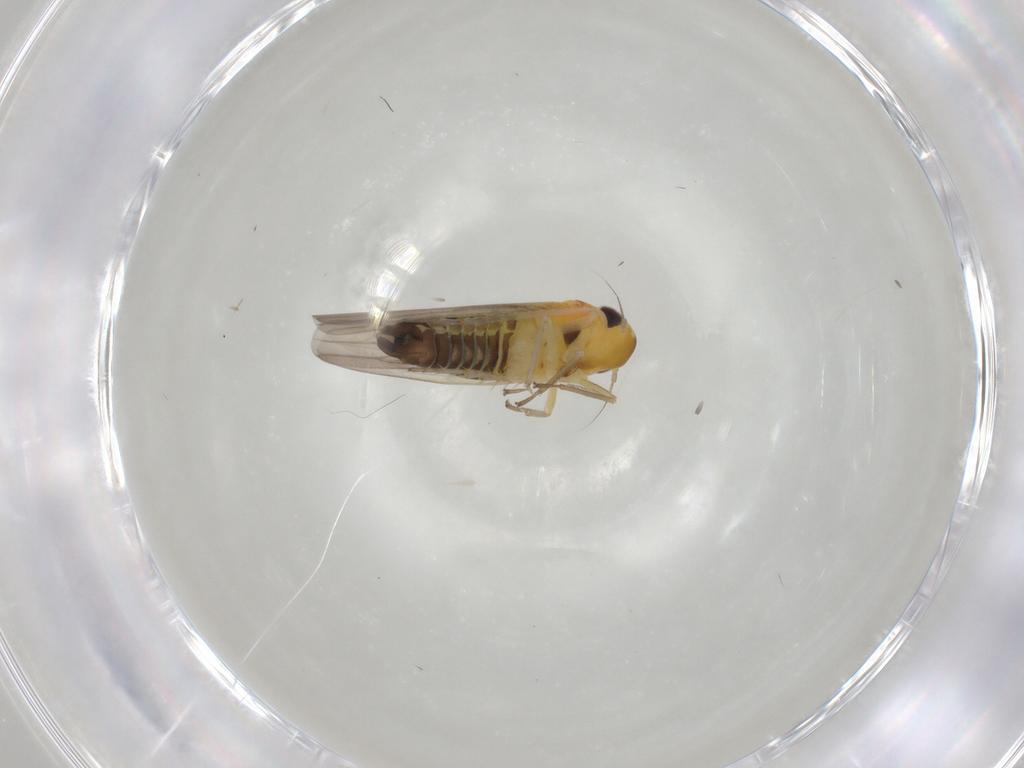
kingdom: Animalia
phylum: Arthropoda
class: Insecta
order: Hemiptera
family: Cicadellidae
